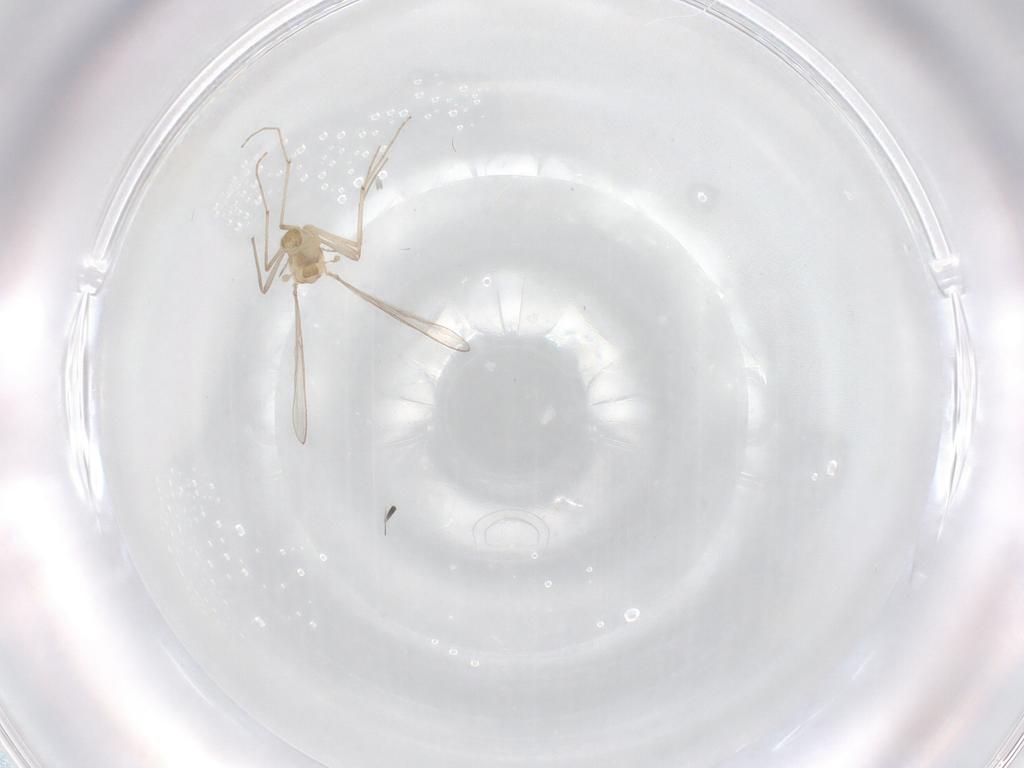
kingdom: Animalia
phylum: Arthropoda
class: Insecta
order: Diptera
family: Chironomidae
